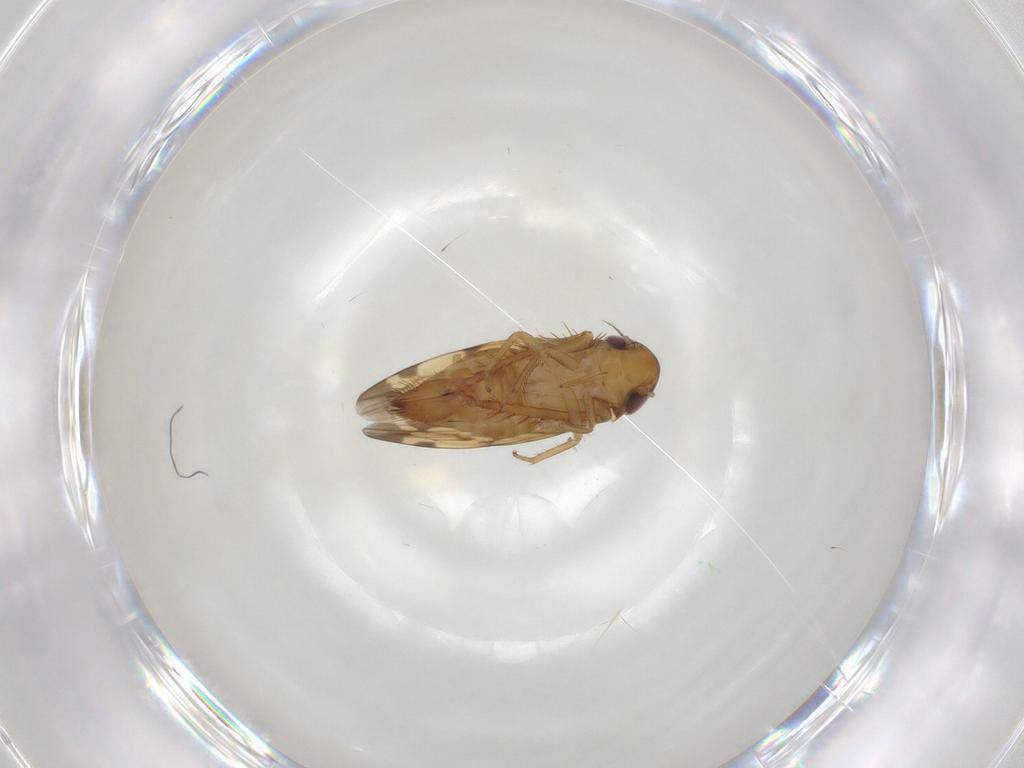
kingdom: Animalia
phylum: Arthropoda
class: Insecta
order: Hemiptera
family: Cicadellidae
